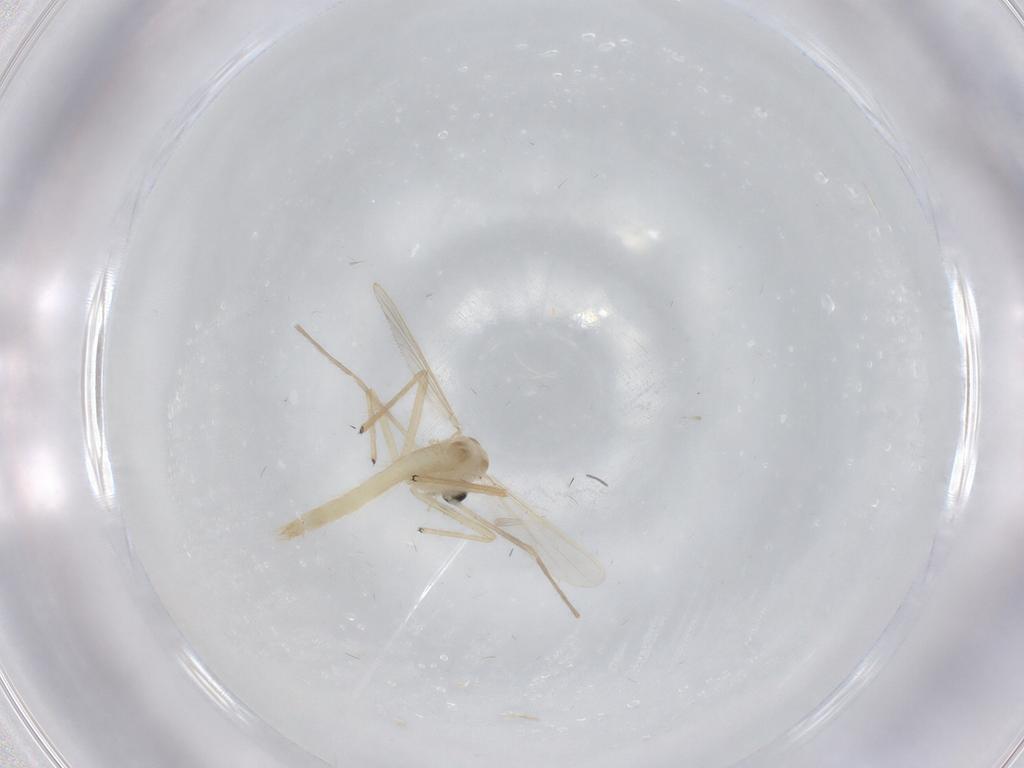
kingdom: Animalia
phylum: Arthropoda
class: Insecta
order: Diptera
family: Chironomidae
